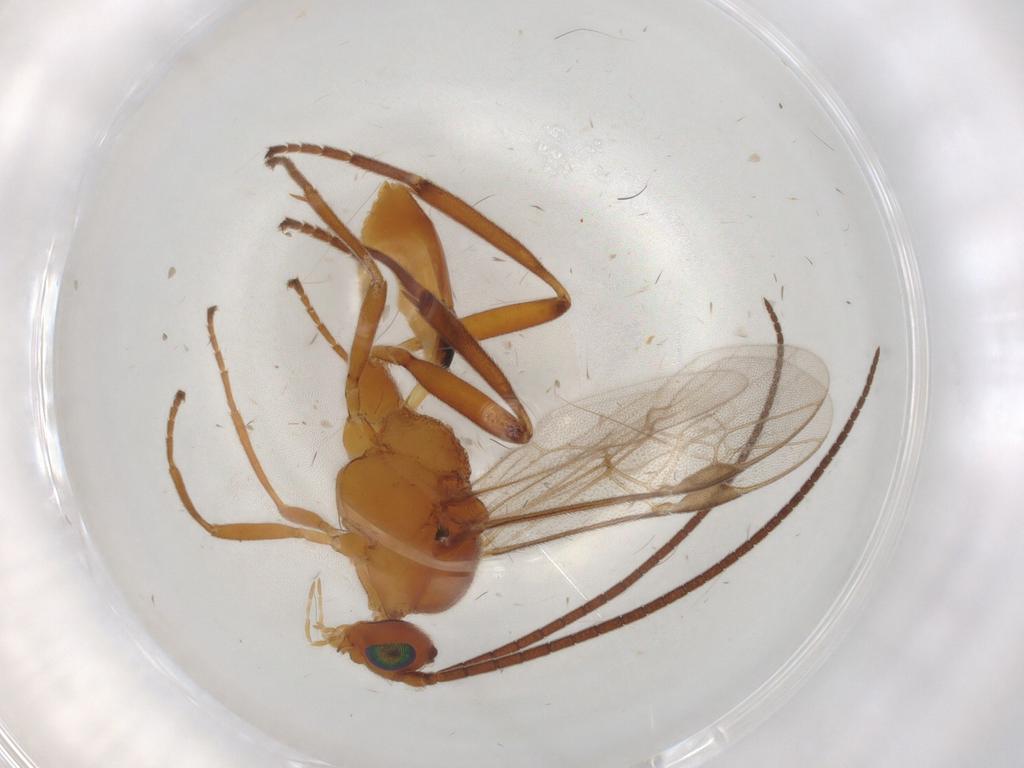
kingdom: Animalia
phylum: Arthropoda
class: Insecta
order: Hymenoptera
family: Braconidae
